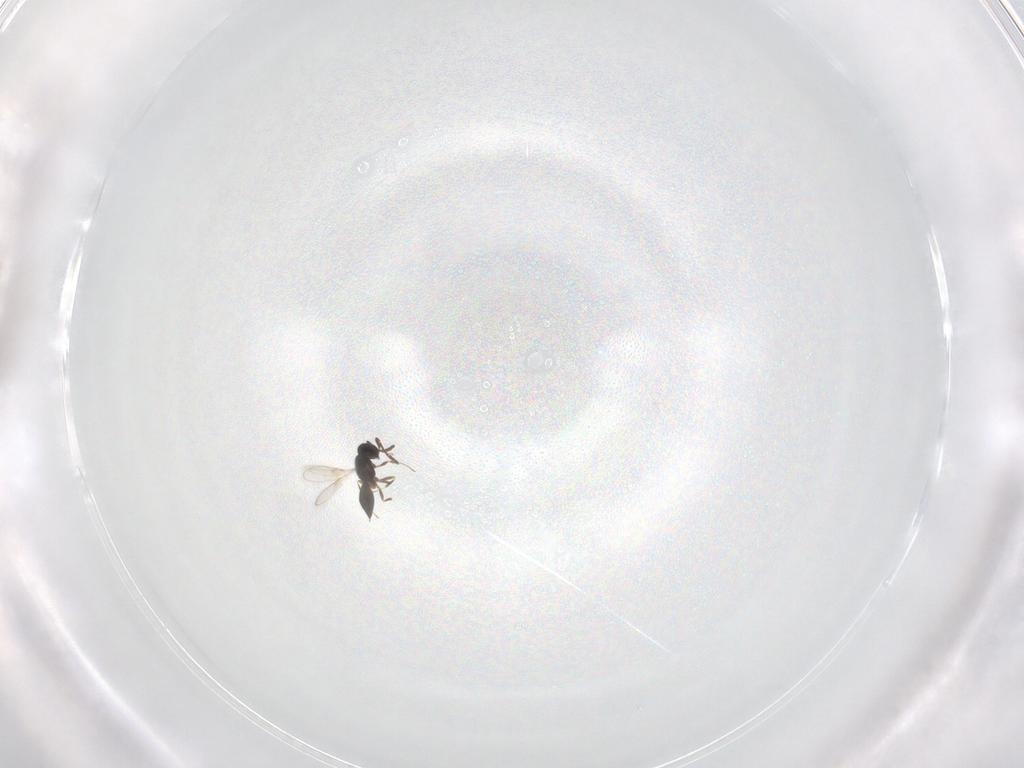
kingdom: Animalia
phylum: Arthropoda
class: Insecta
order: Hymenoptera
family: Scelionidae
